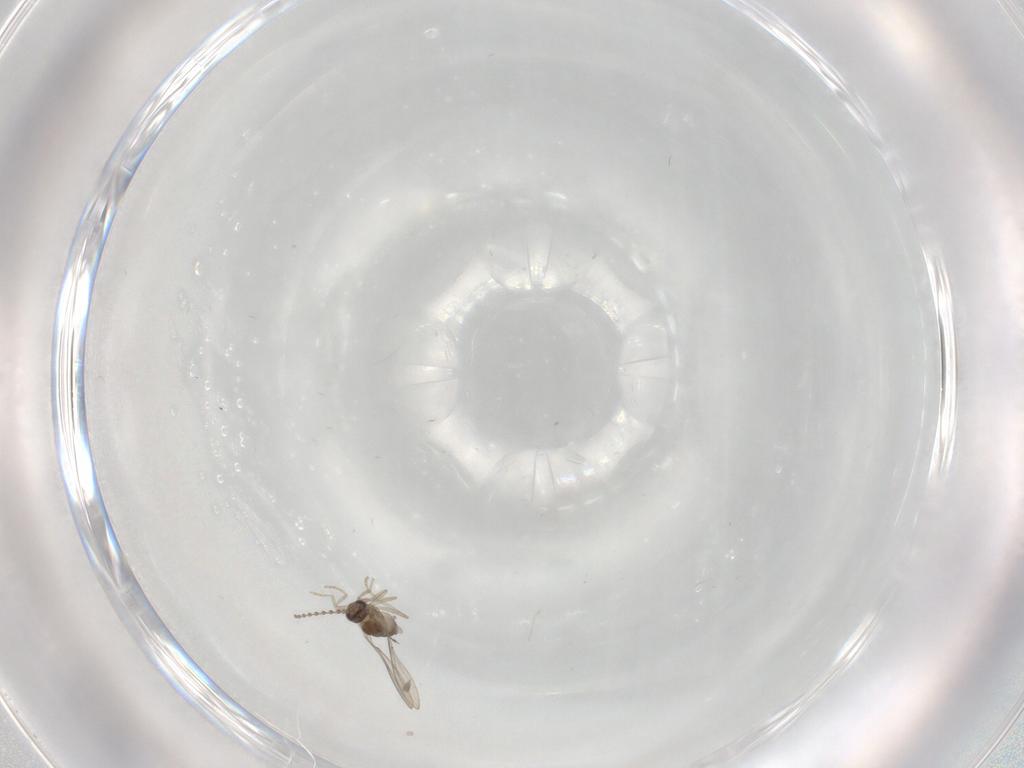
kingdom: Animalia
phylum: Arthropoda
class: Insecta
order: Diptera
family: Cecidomyiidae
